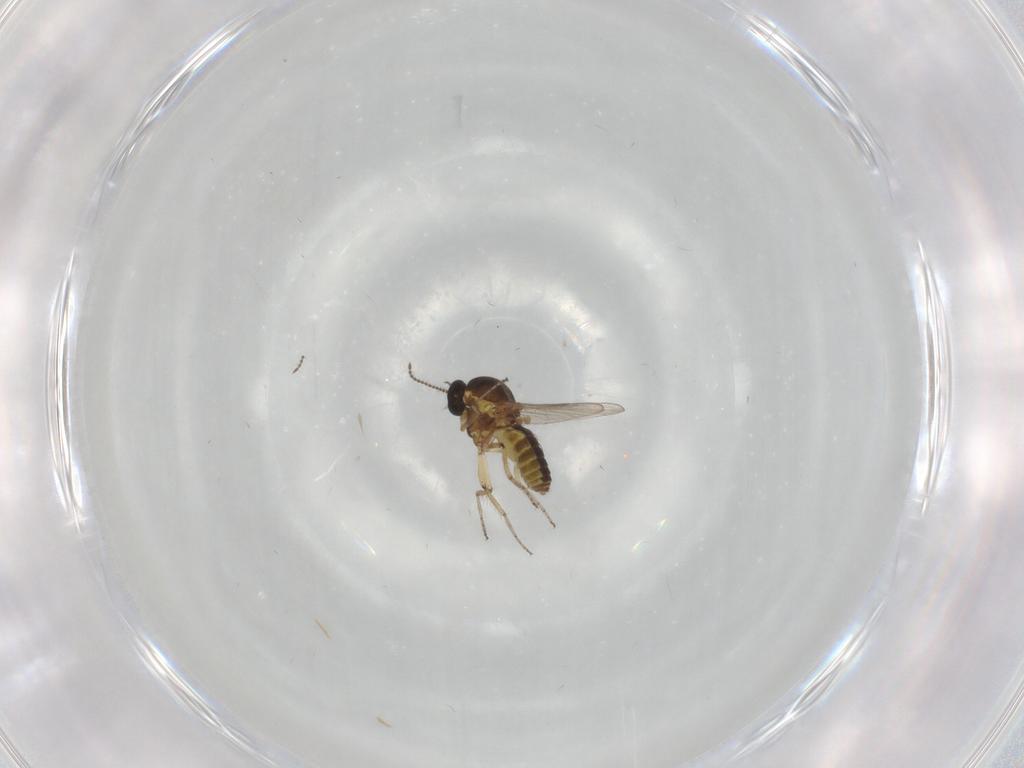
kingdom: Animalia
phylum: Arthropoda
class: Insecta
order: Diptera
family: Ceratopogonidae
